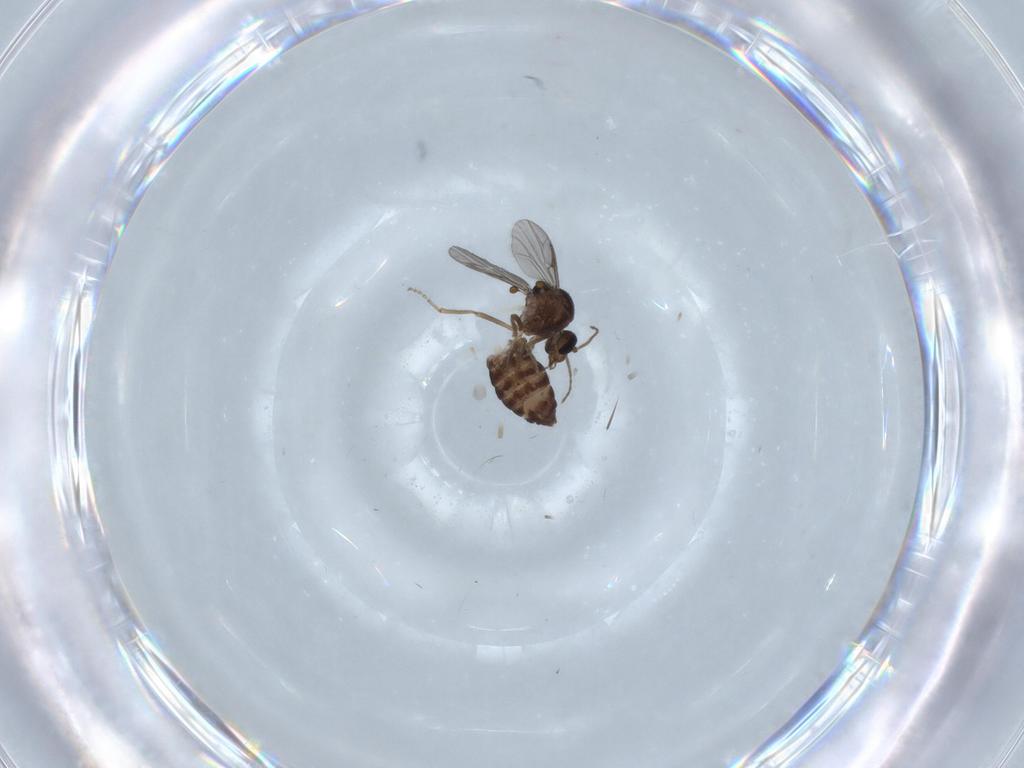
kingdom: Animalia
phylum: Arthropoda
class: Insecta
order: Diptera
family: Ceratopogonidae
